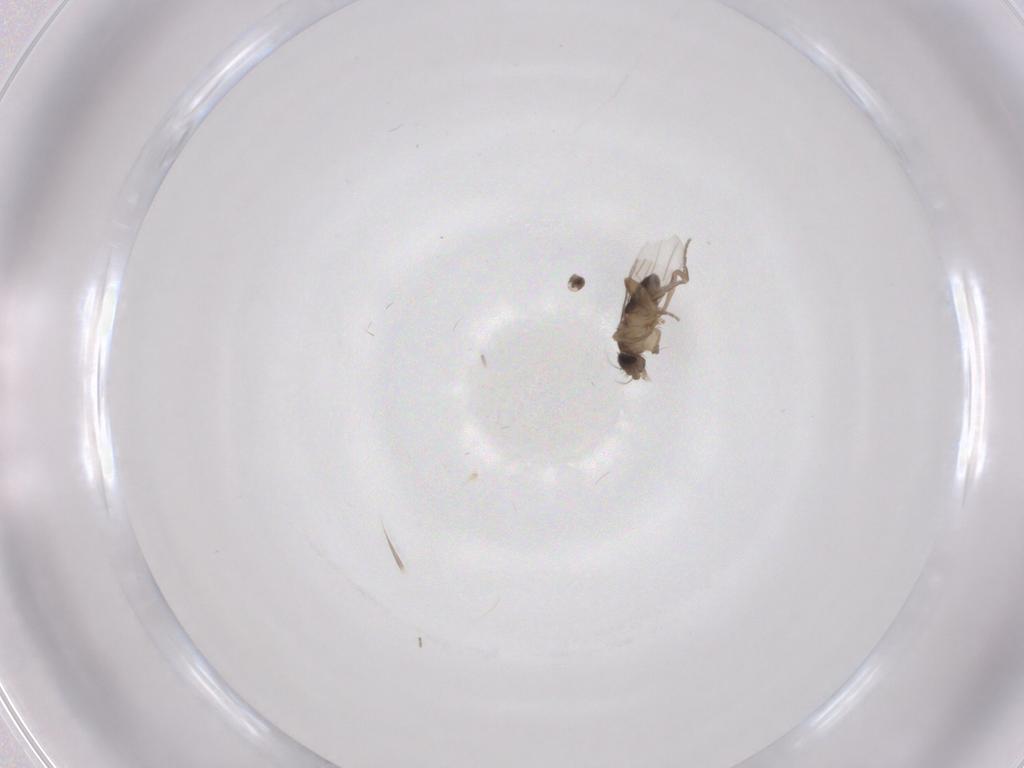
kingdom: Animalia
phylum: Arthropoda
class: Insecta
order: Diptera
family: Phoridae
